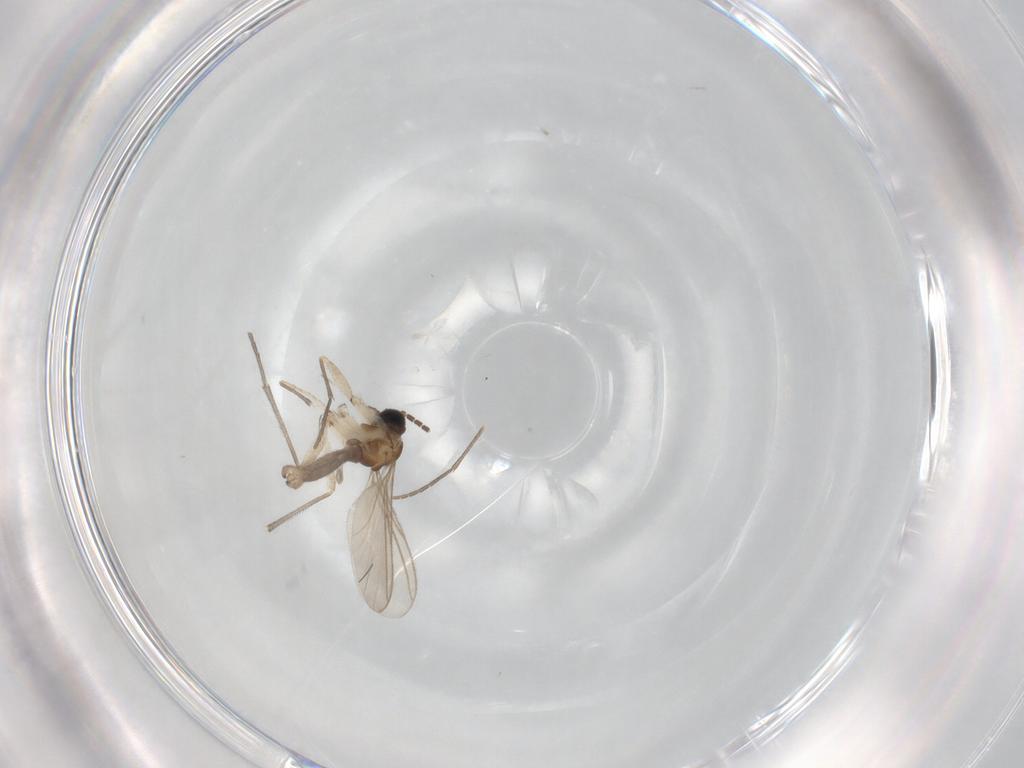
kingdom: Animalia
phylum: Arthropoda
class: Insecta
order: Diptera
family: Sciaridae
